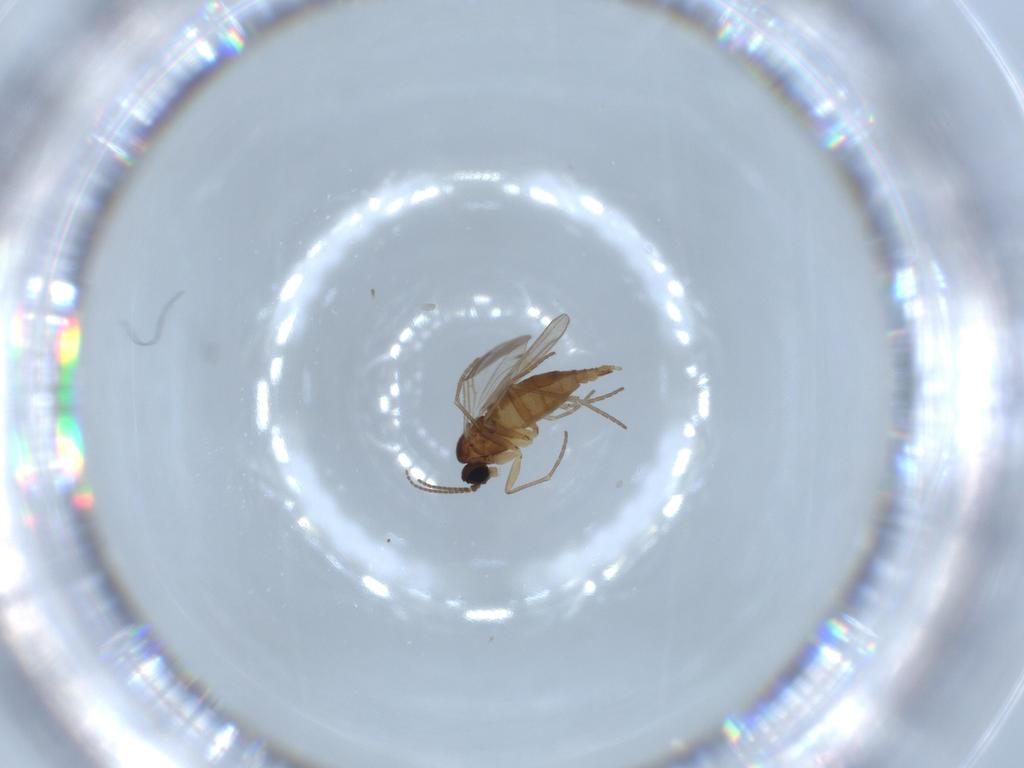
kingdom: Animalia
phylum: Arthropoda
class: Insecta
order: Diptera
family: Sciaridae
